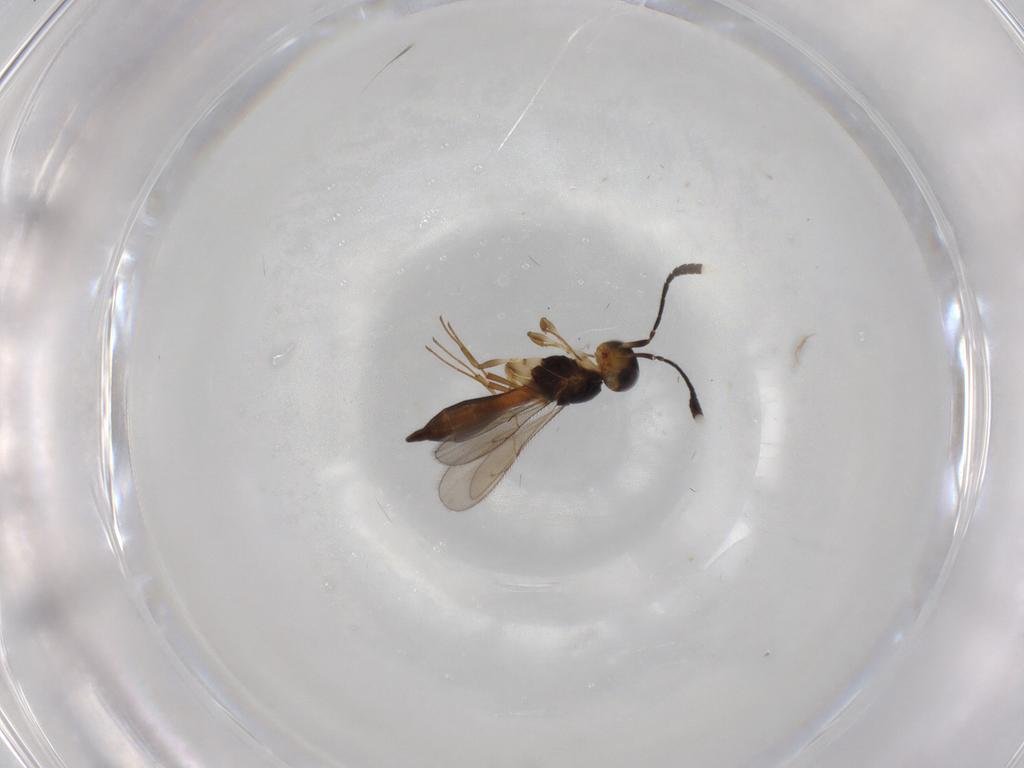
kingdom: Animalia
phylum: Arthropoda
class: Insecta
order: Hymenoptera
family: Scelionidae
